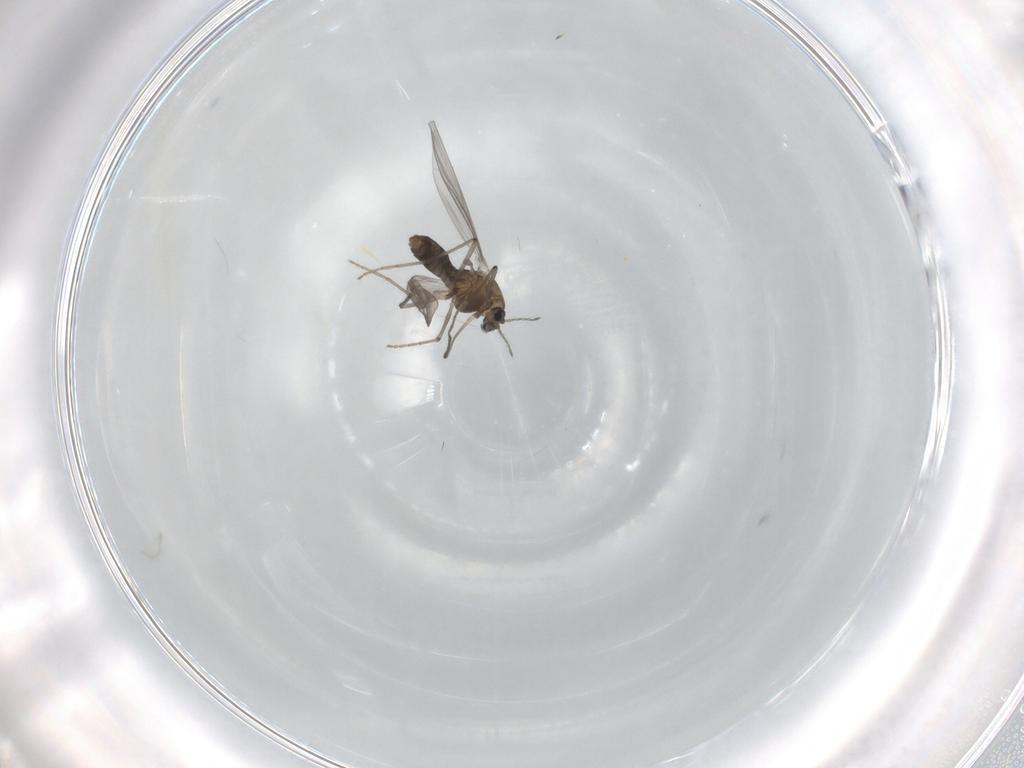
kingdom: Animalia
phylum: Arthropoda
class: Insecta
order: Diptera
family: Chironomidae
